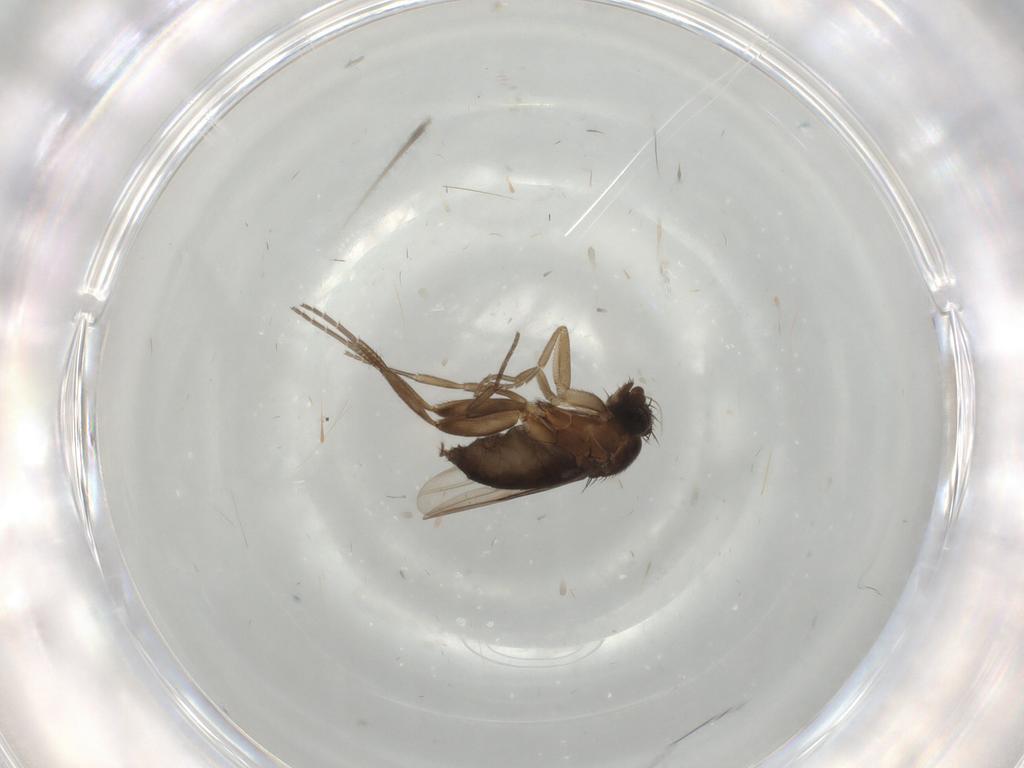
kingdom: Animalia
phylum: Arthropoda
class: Insecta
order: Diptera
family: Phoridae
